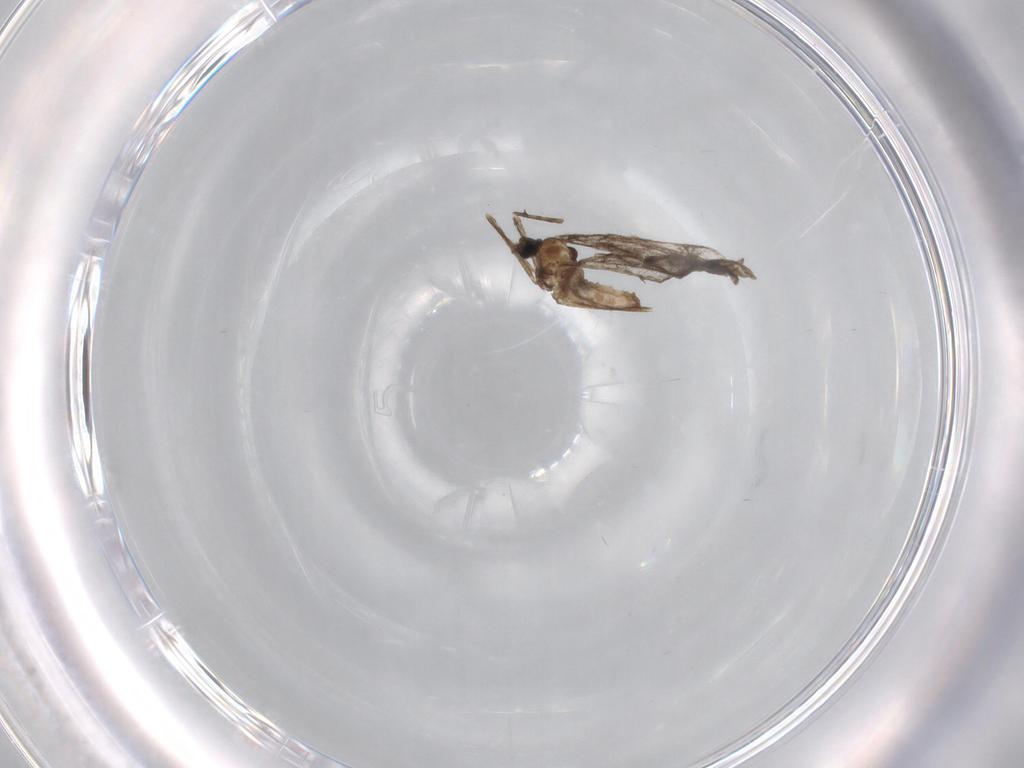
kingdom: Animalia
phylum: Arthropoda
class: Insecta
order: Diptera
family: Cecidomyiidae
